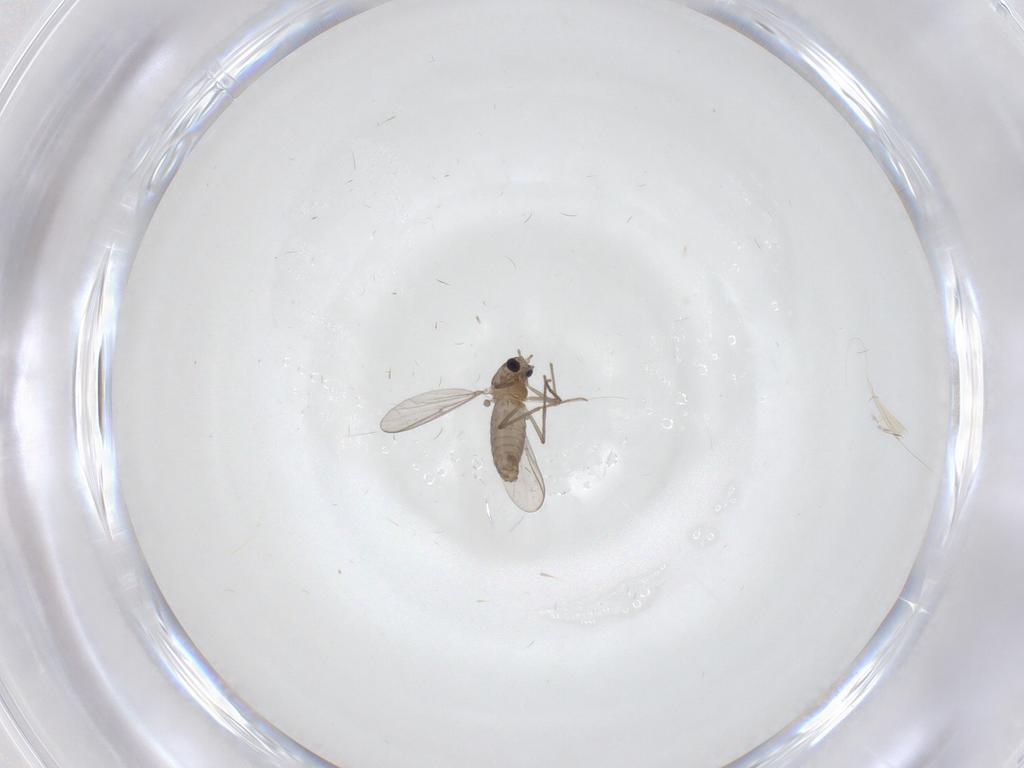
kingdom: Animalia
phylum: Arthropoda
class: Insecta
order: Diptera
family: Chironomidae
